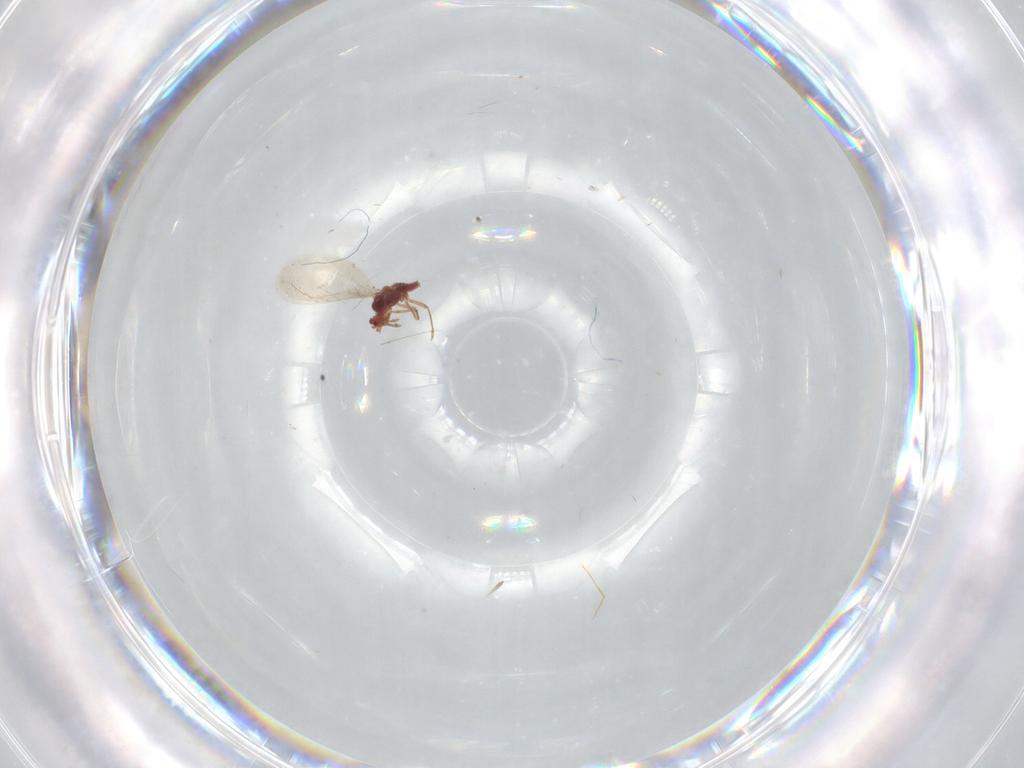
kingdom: Animalia
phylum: Arthropoda
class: Insecta
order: Hemiptera
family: Coccoidea_incertae_sedis
